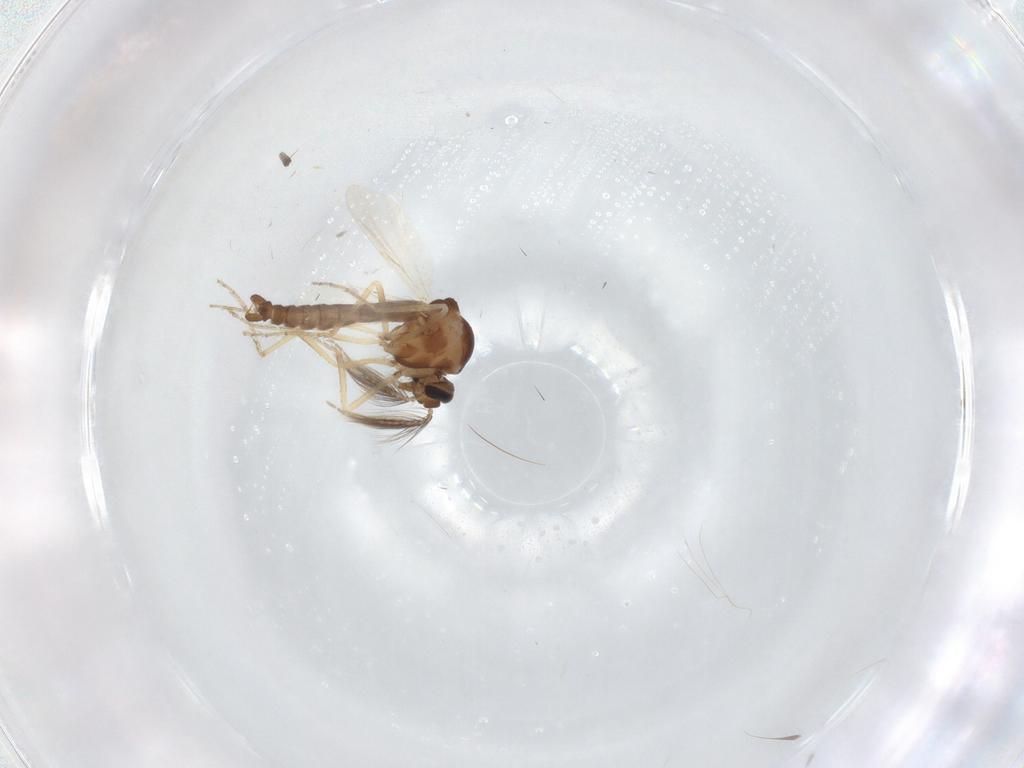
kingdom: Animalia
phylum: Arthropoda
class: Insecta
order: Diptera
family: Ceratopogonidae
